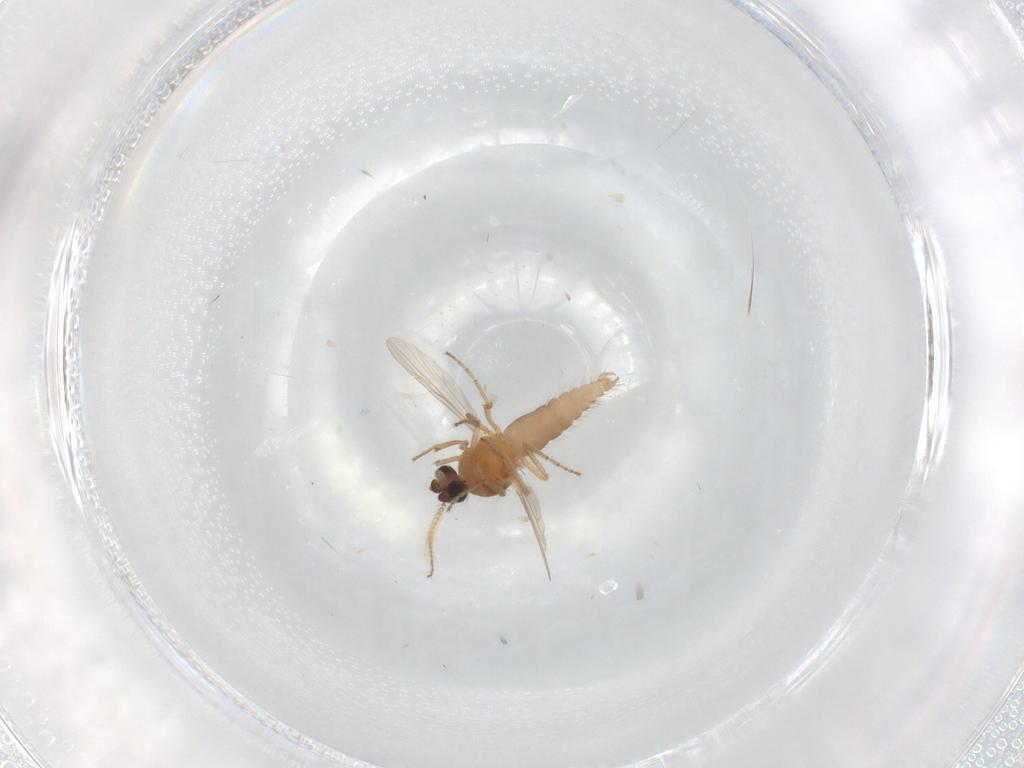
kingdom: Animalia
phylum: Arthropoda
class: Insecta
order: Diptera
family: Ceratopogonidae
